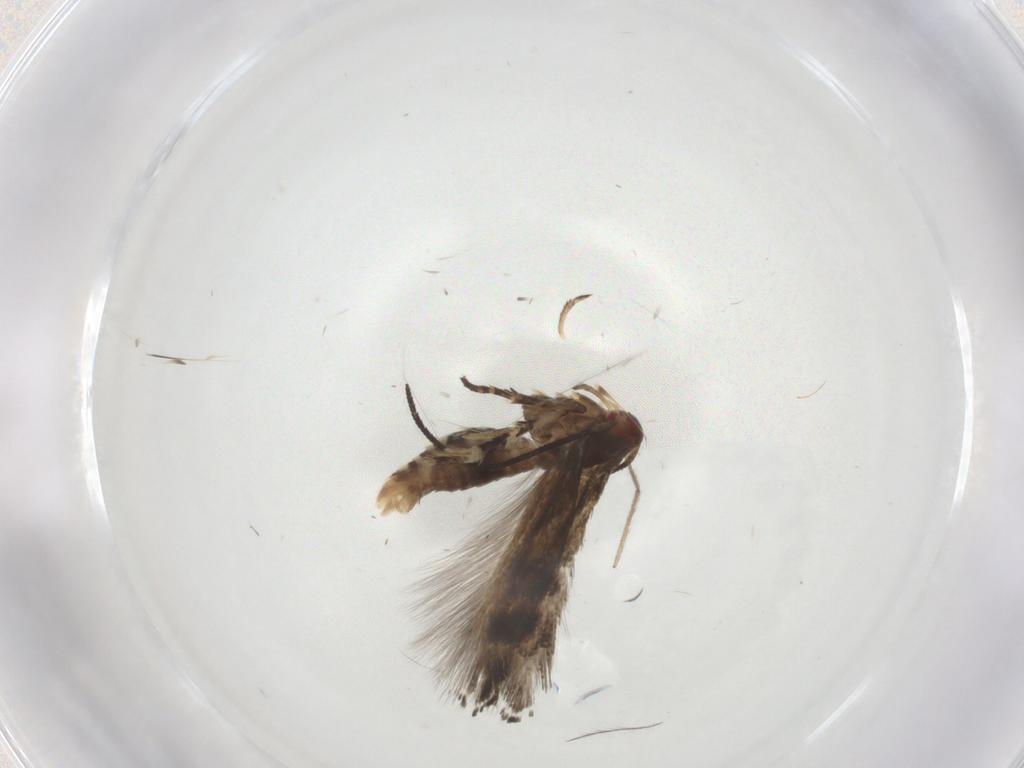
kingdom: Animalia
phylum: Arthropoda
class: Insecta
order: Lepidoptera
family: Momphidae
